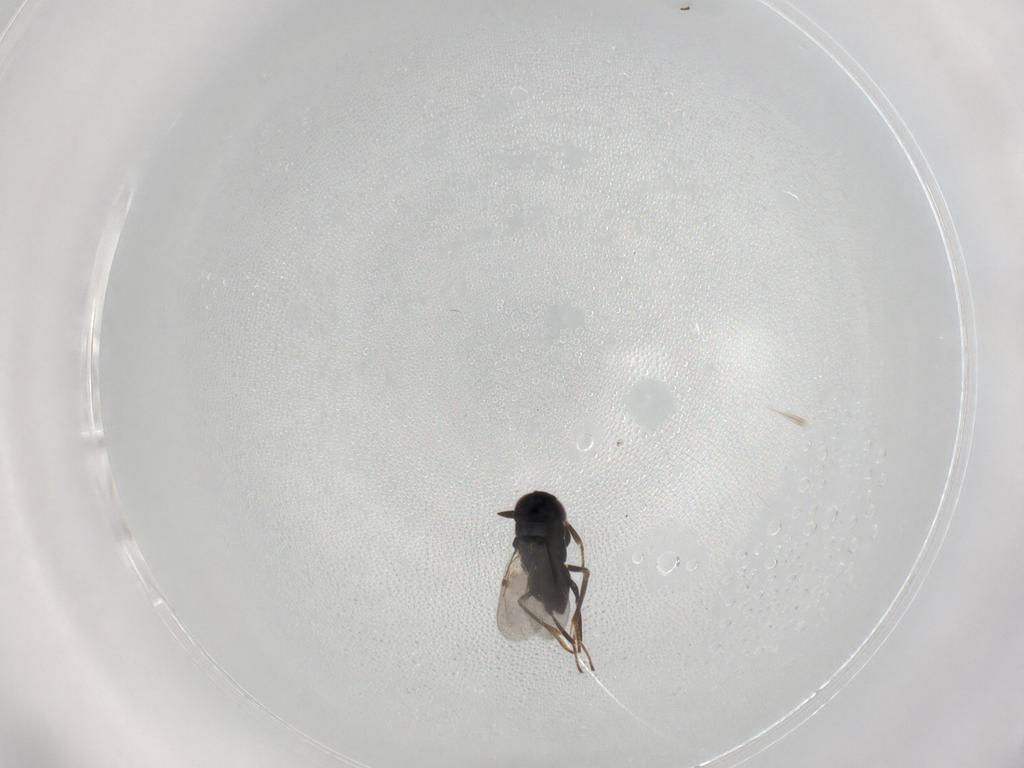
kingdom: Animalia
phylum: Arthropoda
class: Insecta
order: Hymenoptera
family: Encyrtidae
